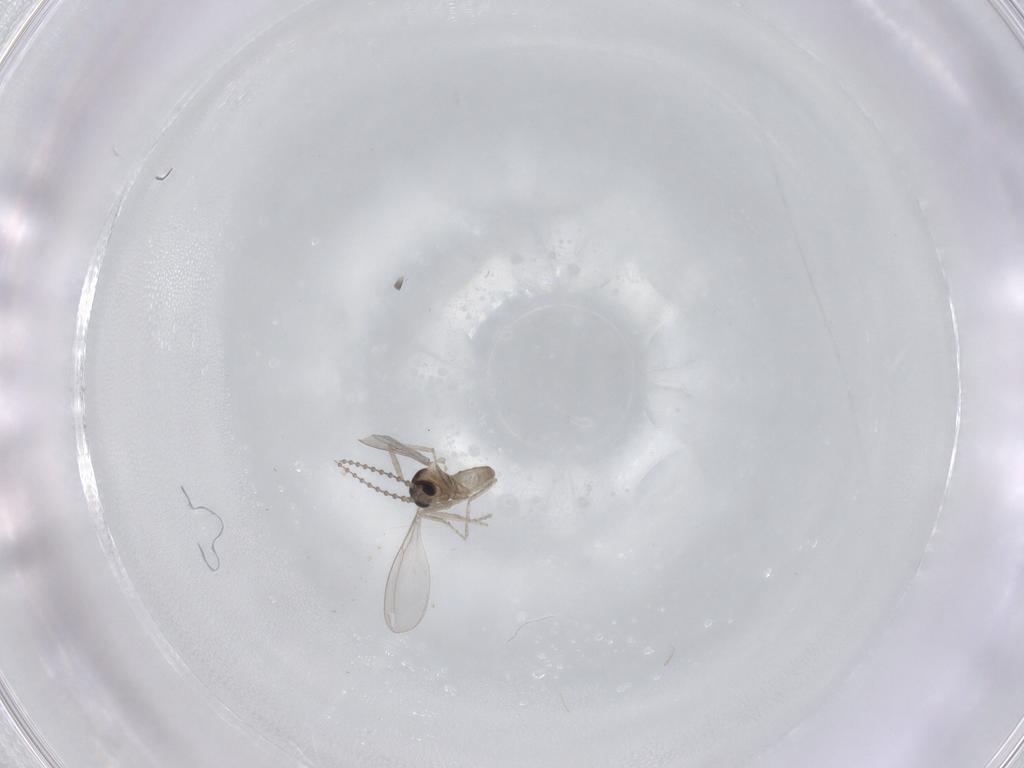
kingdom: Animalia
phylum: Arthropoda
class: Insecta
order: Diptera
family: Cecidomyiidae
